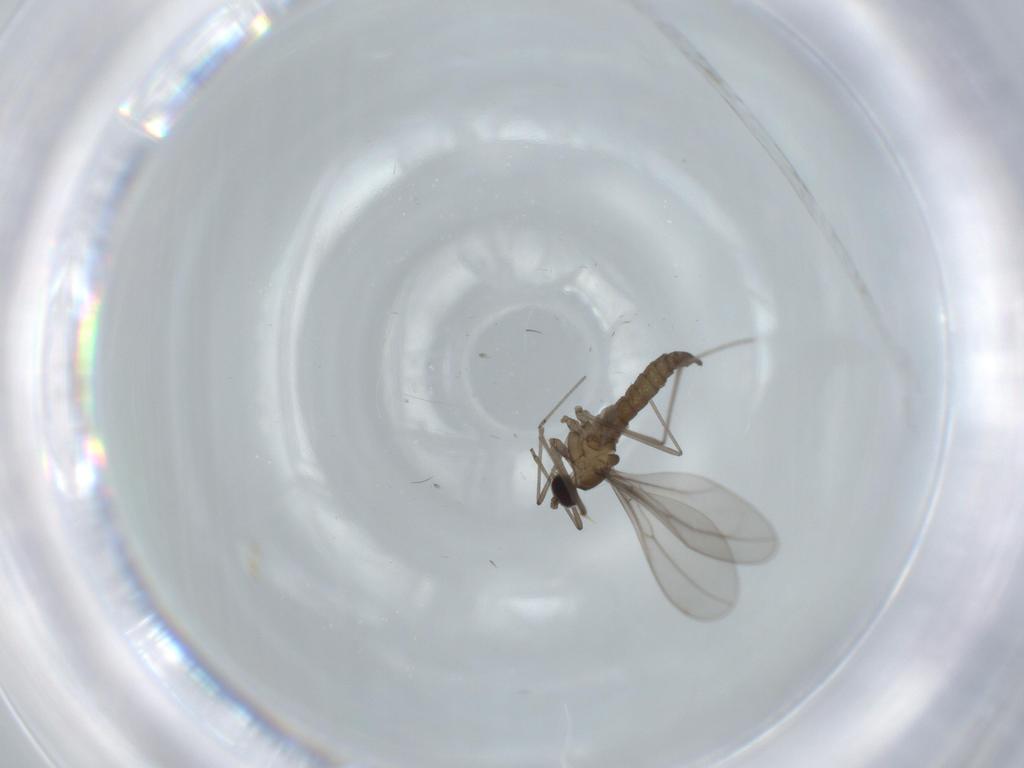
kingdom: Animalia
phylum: Arthropoda
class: Insecta
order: Diptera
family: Cecidomyiidae
